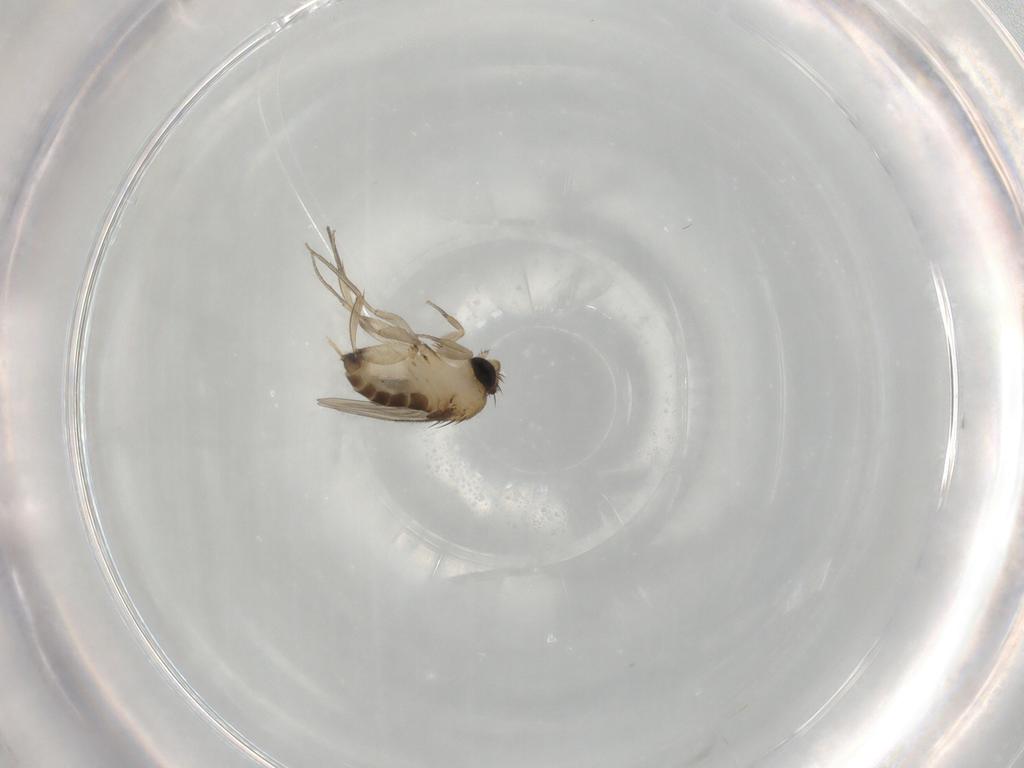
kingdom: Animalia
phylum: Arthropoda
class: Insecta
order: Diptera
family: Phoridae
